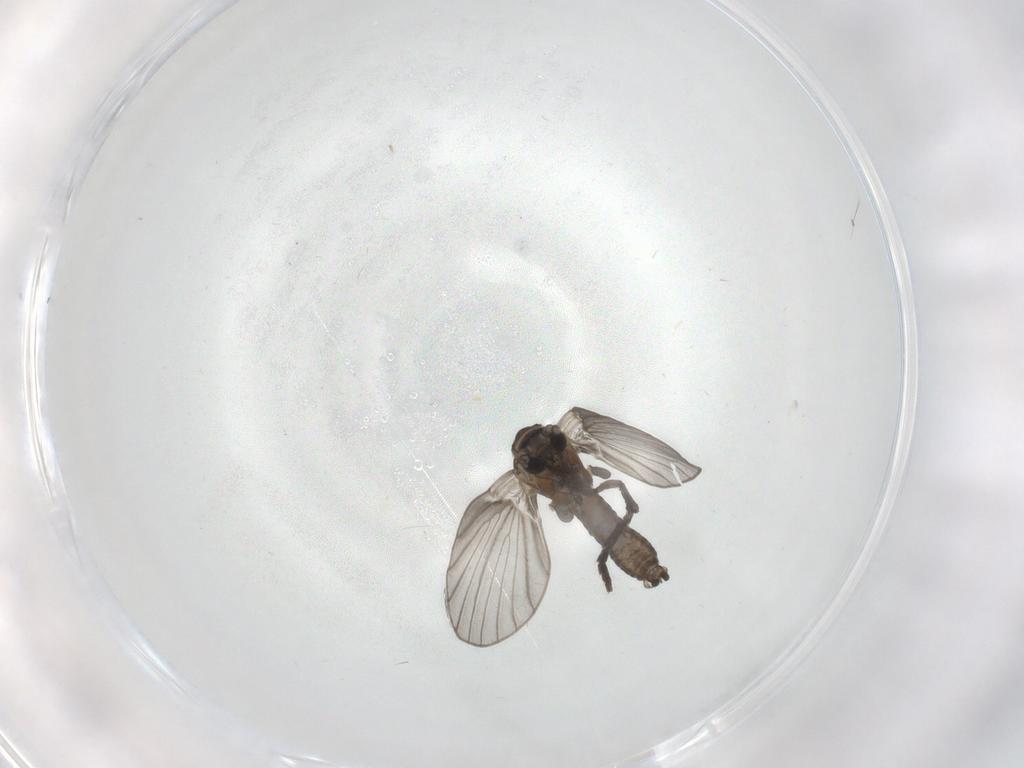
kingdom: Animalia
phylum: Arthropoda
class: Insecta
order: Diptera
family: Psychodidae
